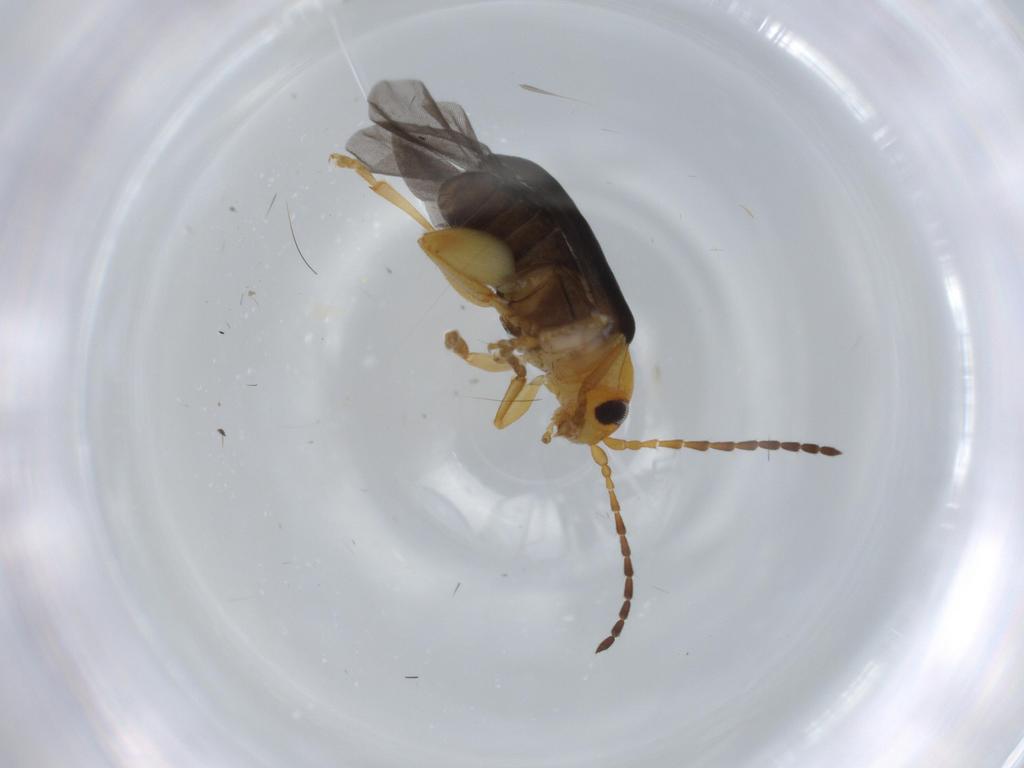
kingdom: Animalia
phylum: Arthropoda
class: Insecta
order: Coleoptera
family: Chrysomelidae
